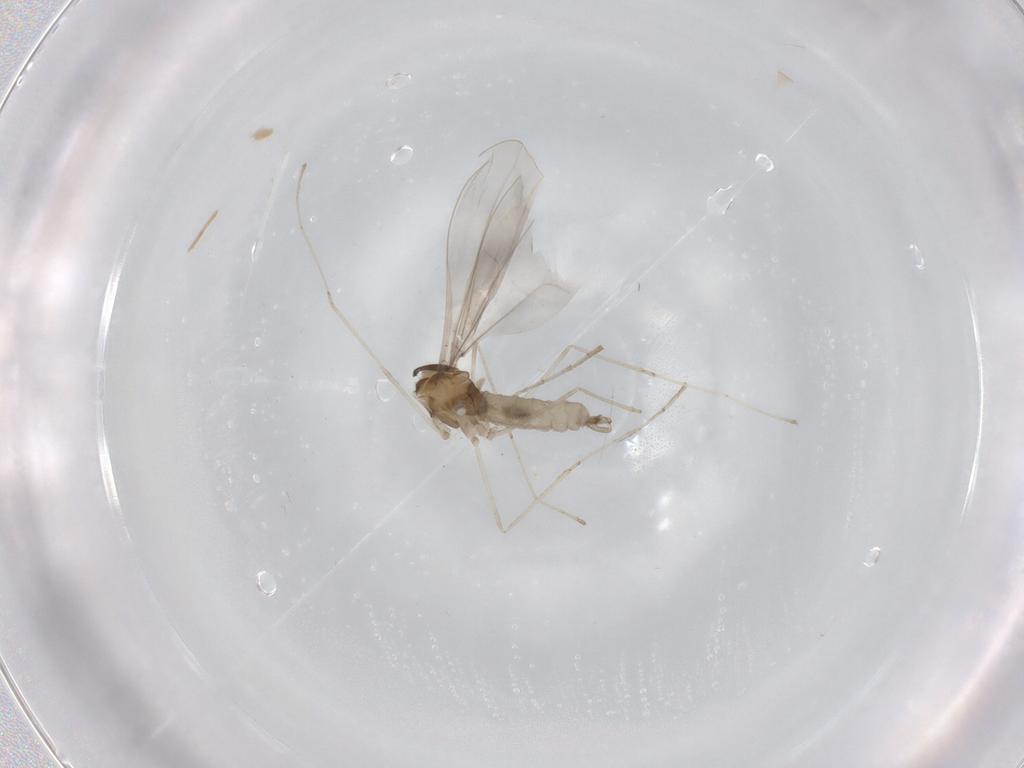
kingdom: Animalia
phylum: Arthropoda
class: Insecta
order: Diptera
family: Cecidomyiidae
